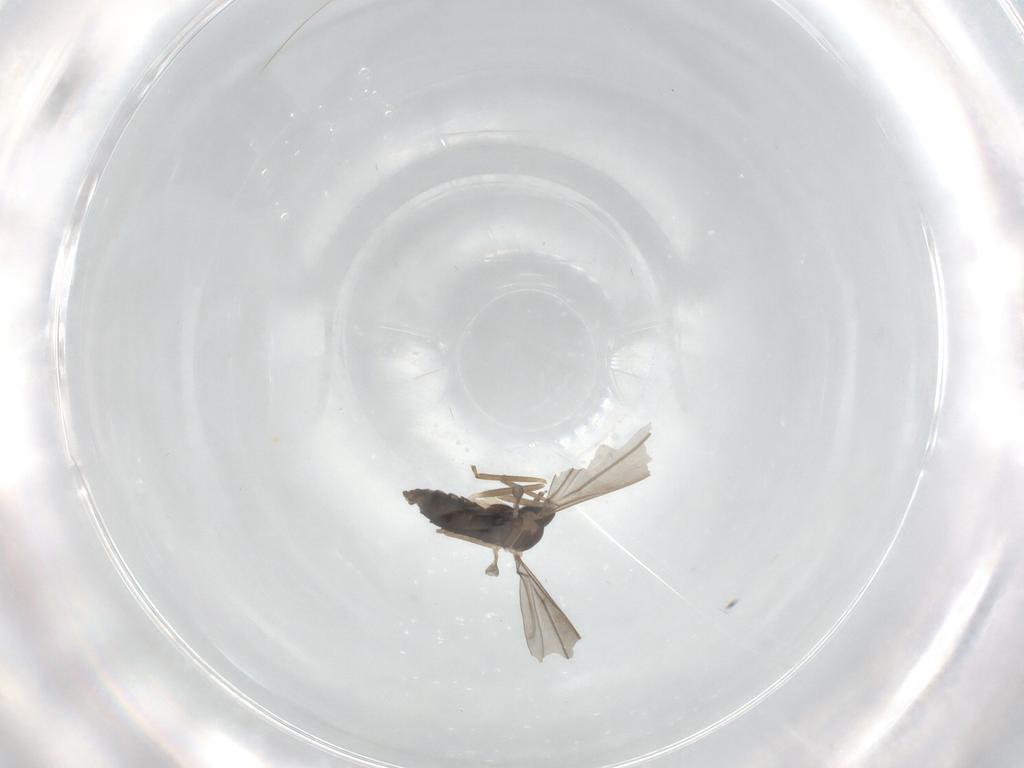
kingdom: Animalia
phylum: Arthropoda
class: Insecta
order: Diptera
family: Cecidomyiidae
